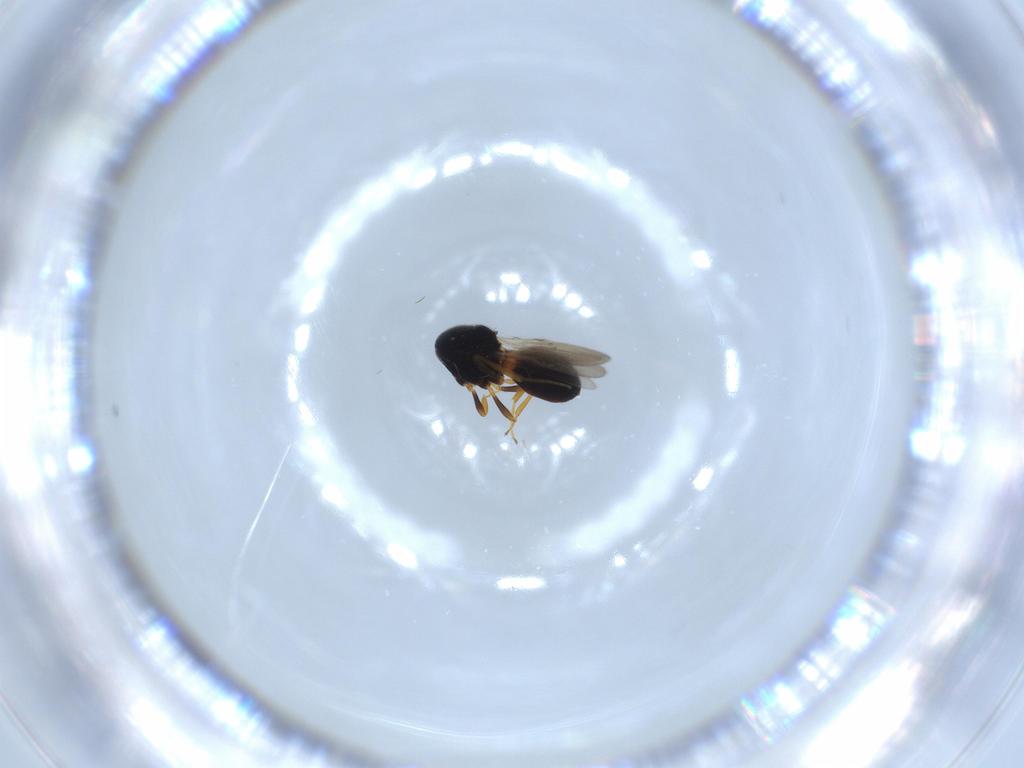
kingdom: Animalia
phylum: Arthropoda
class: Insecta
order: Hymenoptera
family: Scelionidae
